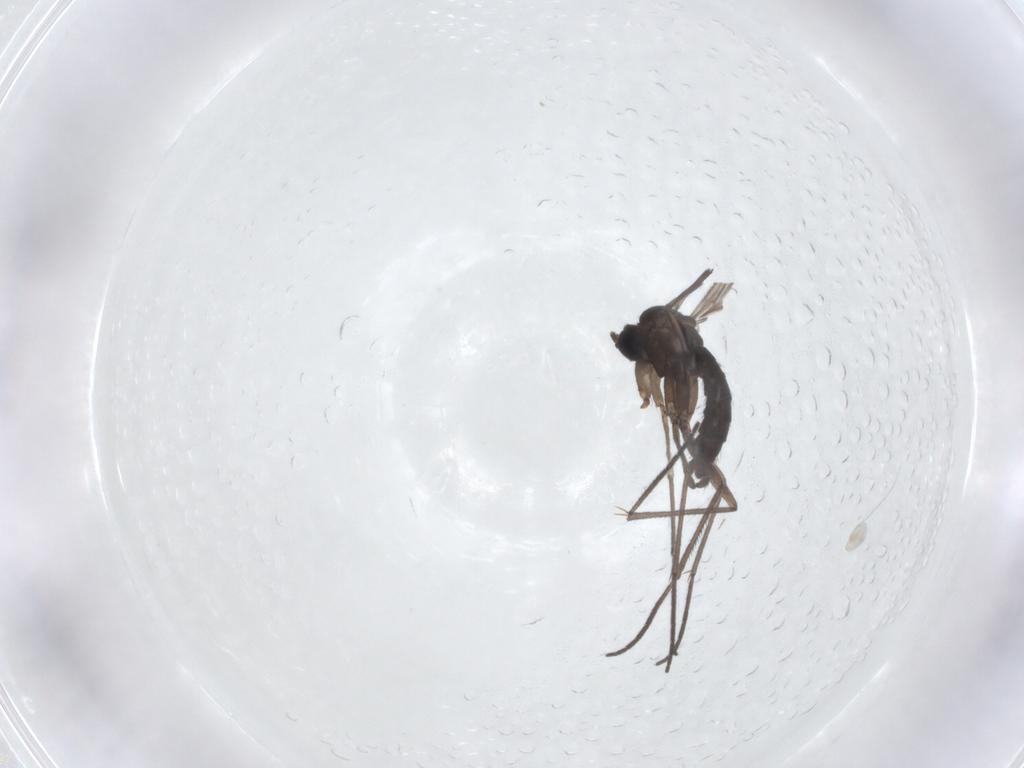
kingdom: Animalia
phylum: Arthropoda
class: Insecta
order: Diptera
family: Sciaridae
